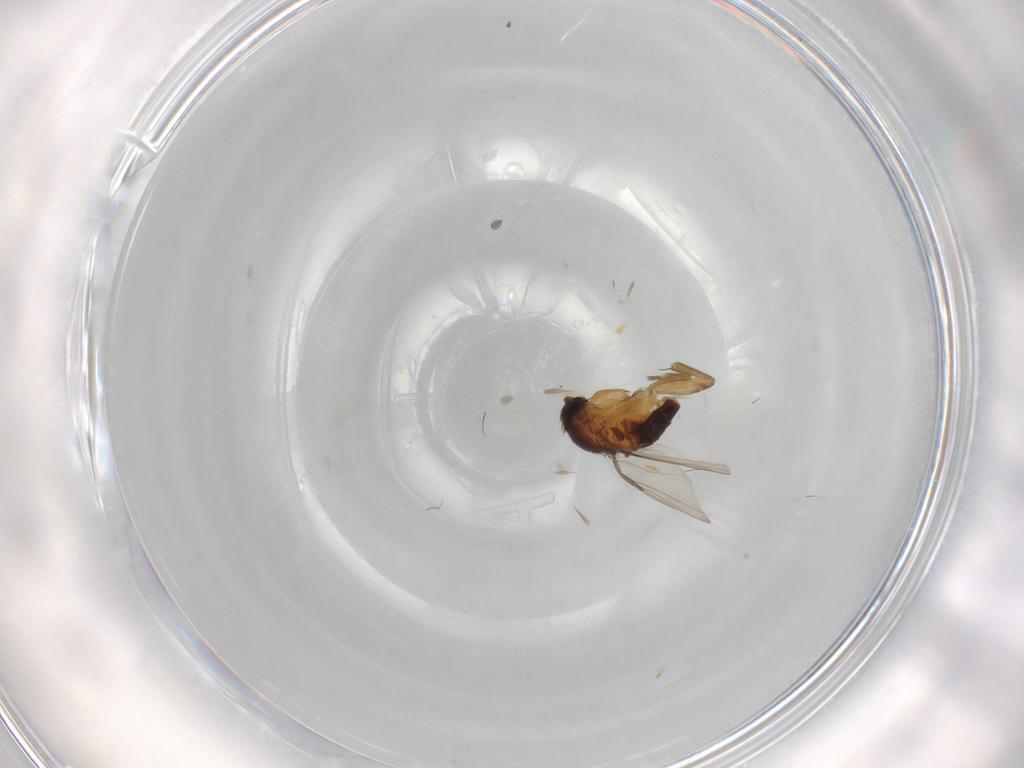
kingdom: Animalia
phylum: Arthropoda
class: Insecta
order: Diptera
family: Phoridae
